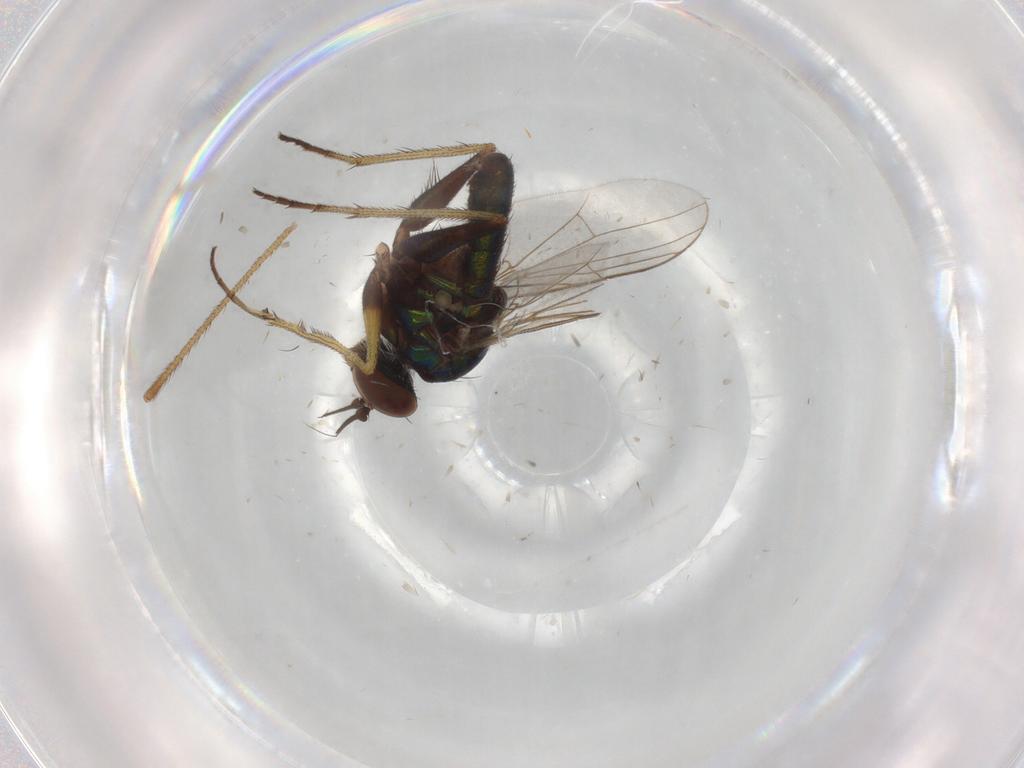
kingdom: Animalia
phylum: Arthropoda
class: Insecta
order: Diptera
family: Limoniidae
